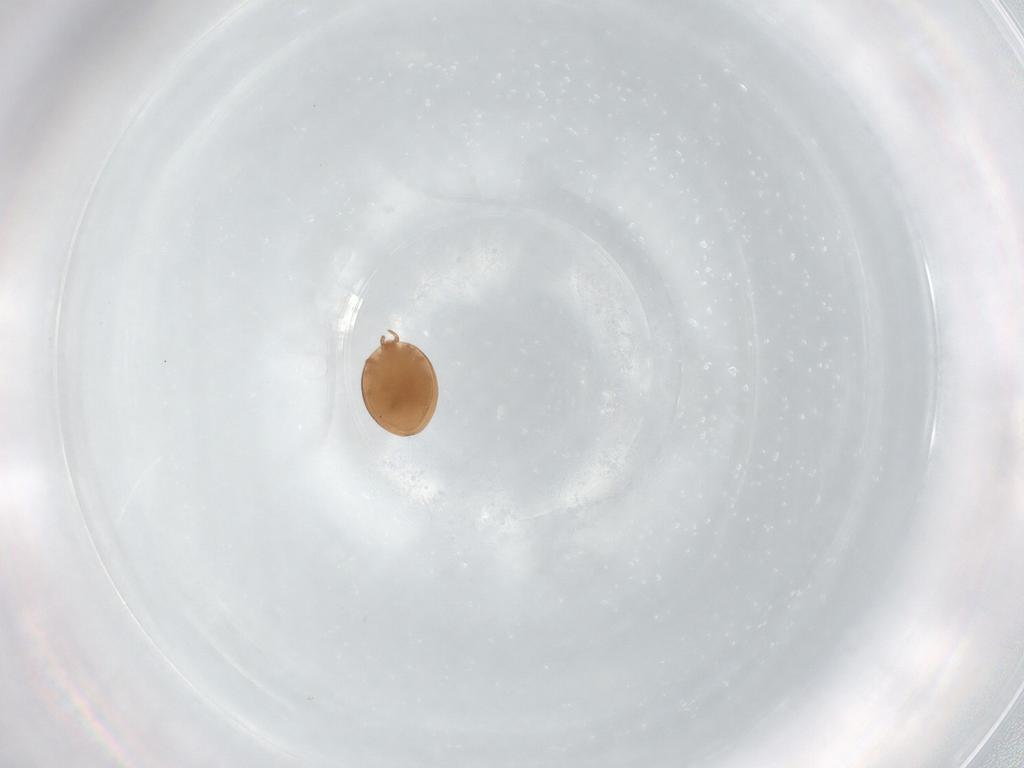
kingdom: Animalia
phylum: Arthropoda
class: Arachnida
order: Mesostigmata
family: Trematuridae
